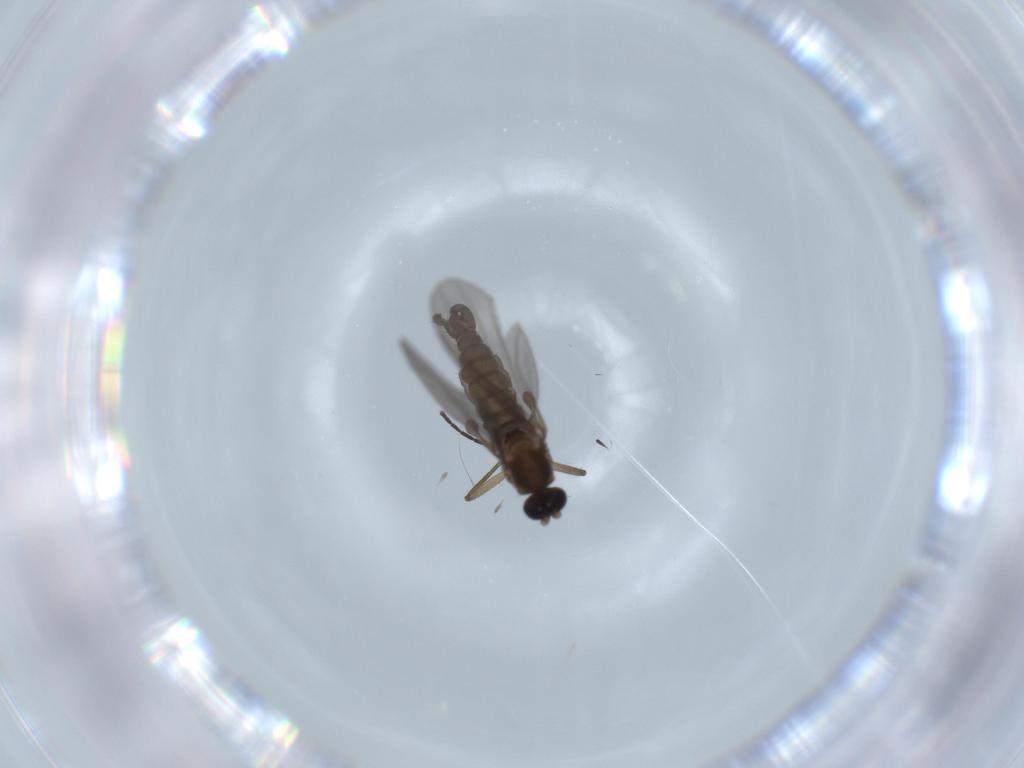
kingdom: Animalia
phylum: Arthropoda
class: Insecta
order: Diptera
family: Sciaridae
